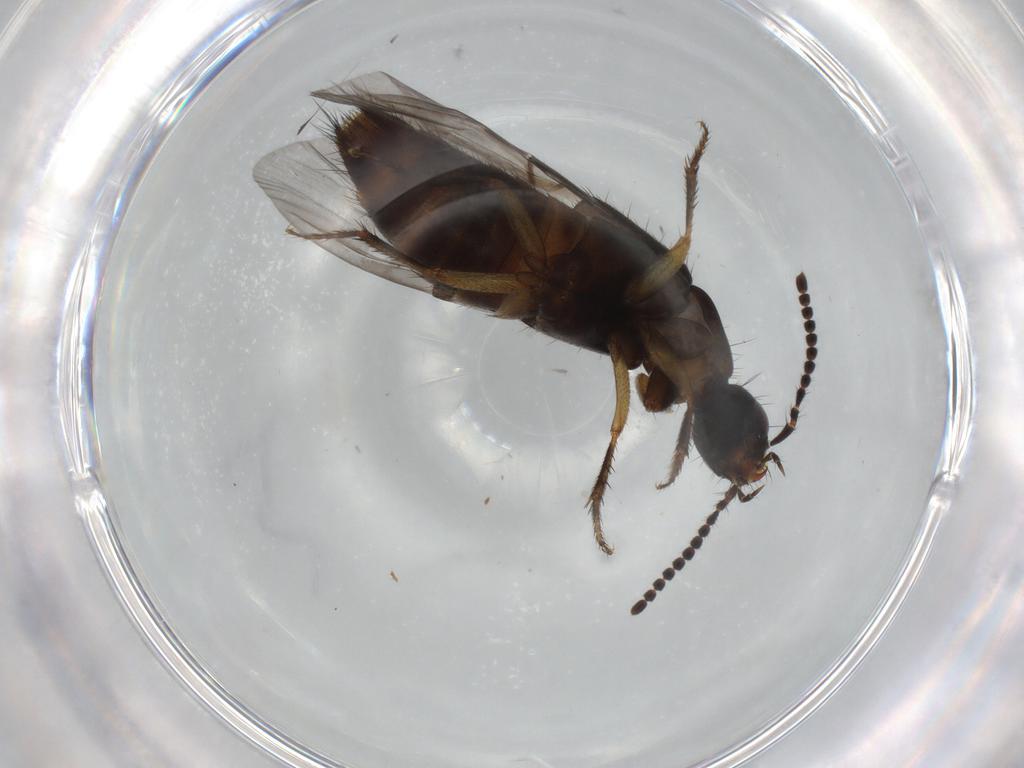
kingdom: Animalia
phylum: Arthropoda
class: Insecta
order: Coleoptera
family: Staphylinidae
